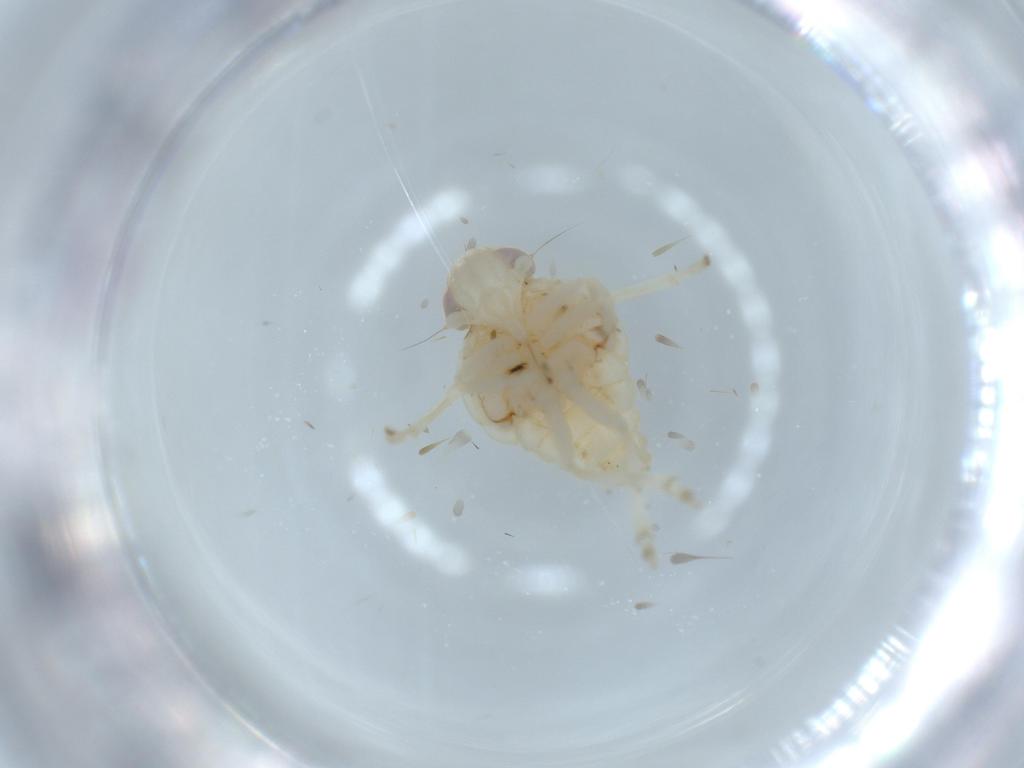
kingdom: Animalia
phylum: Arthropoda
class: Insecta
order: Hemiptera
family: Nogodinidae
